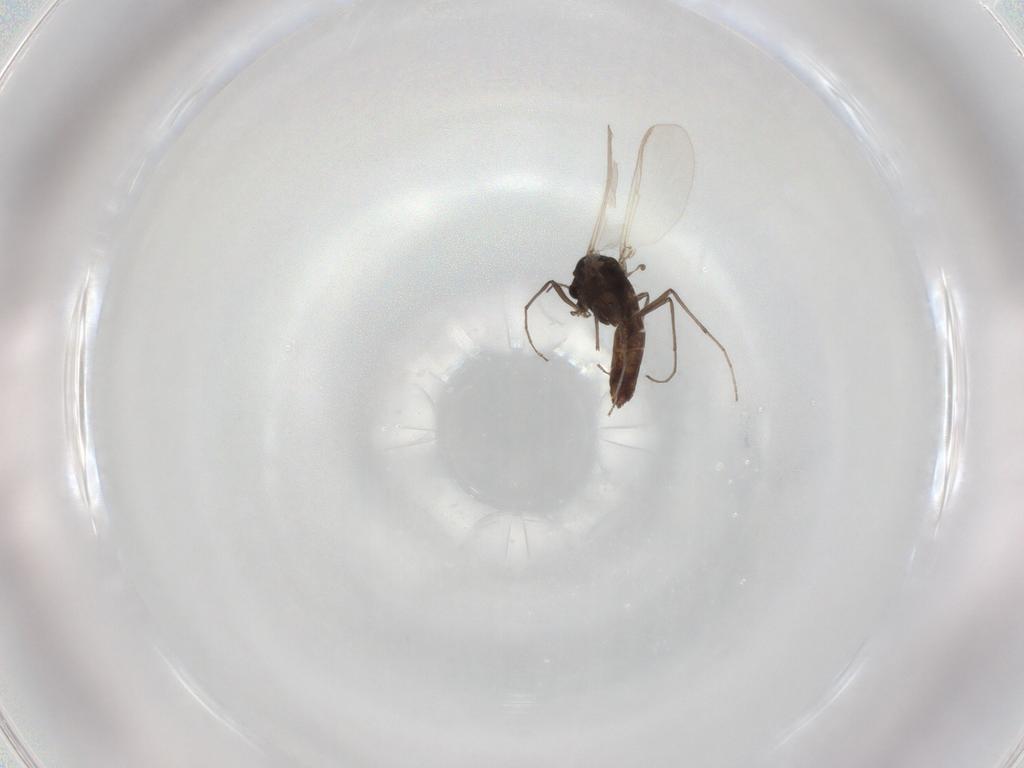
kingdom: Animalia
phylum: Arthropoda
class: Insecta
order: Diptera
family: Chironomidae
